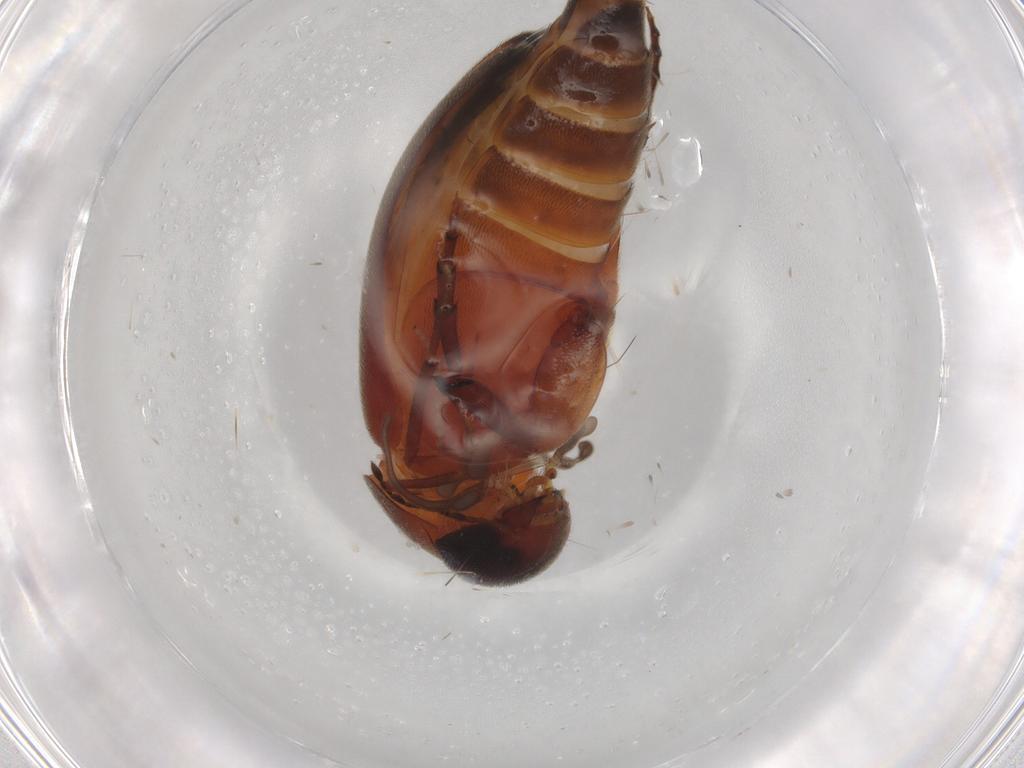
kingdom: Animalia
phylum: Arthropoda
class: Insecta
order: Coleoptera
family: Mordellidae
